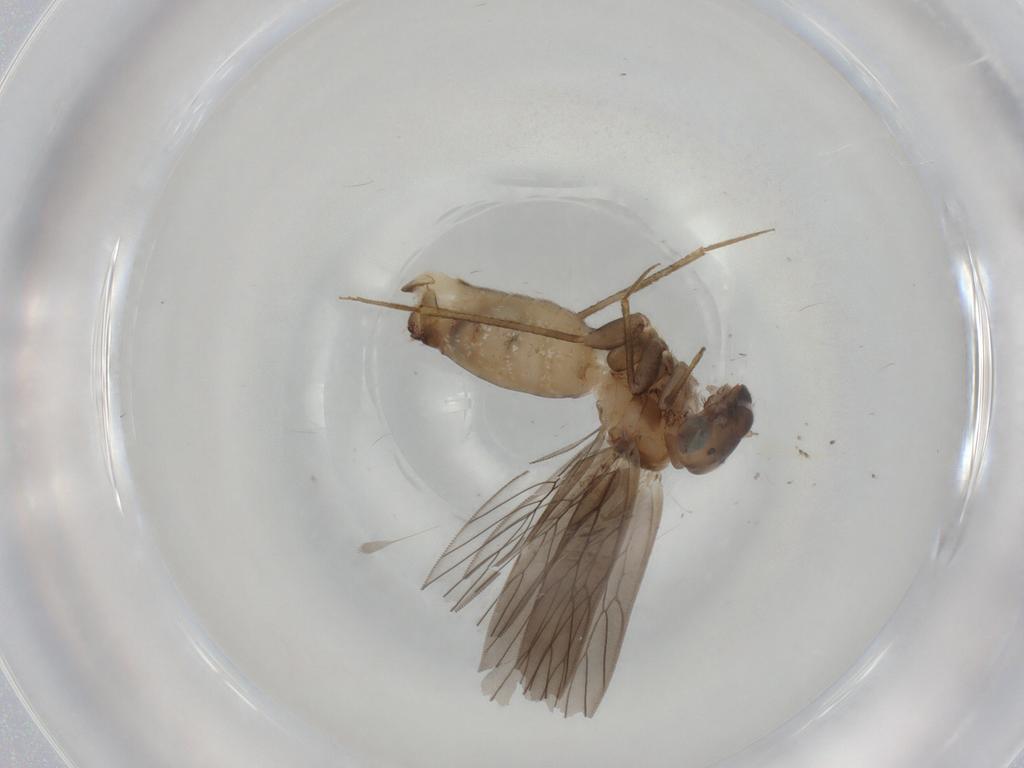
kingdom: Animalia
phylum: Arthropoda
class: Insecta
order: Psocodea
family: Lepidopsocidae
